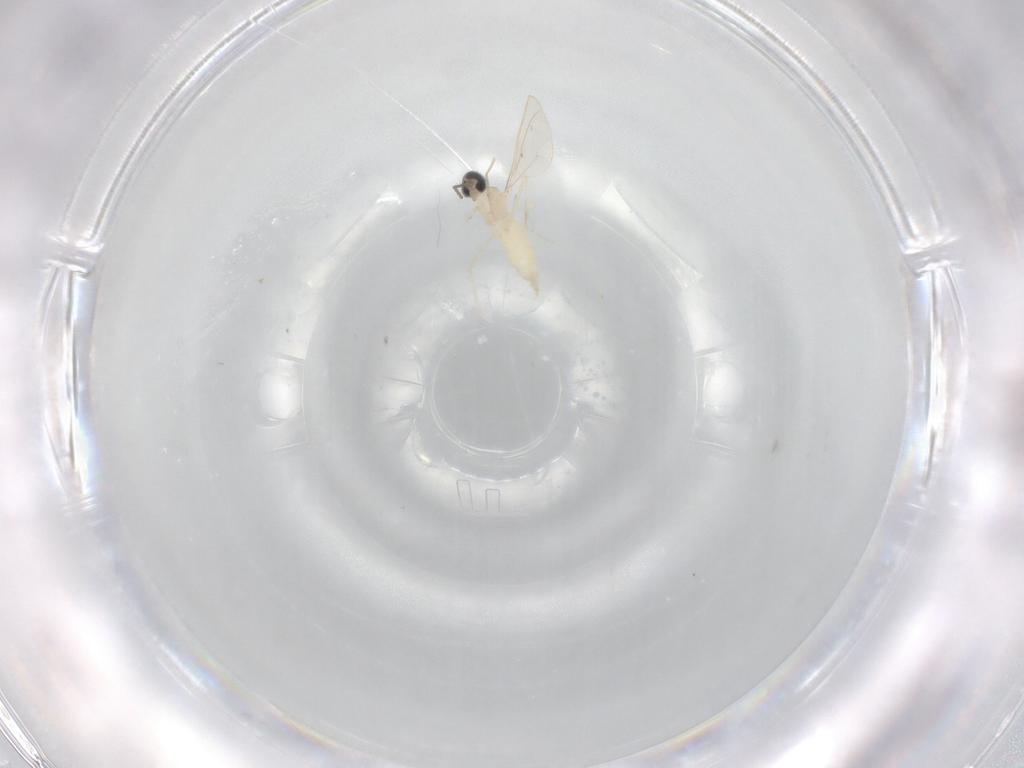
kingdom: Animalia
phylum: Arthropoda
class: Insecta
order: Diptera
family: Cecidomyiidae
